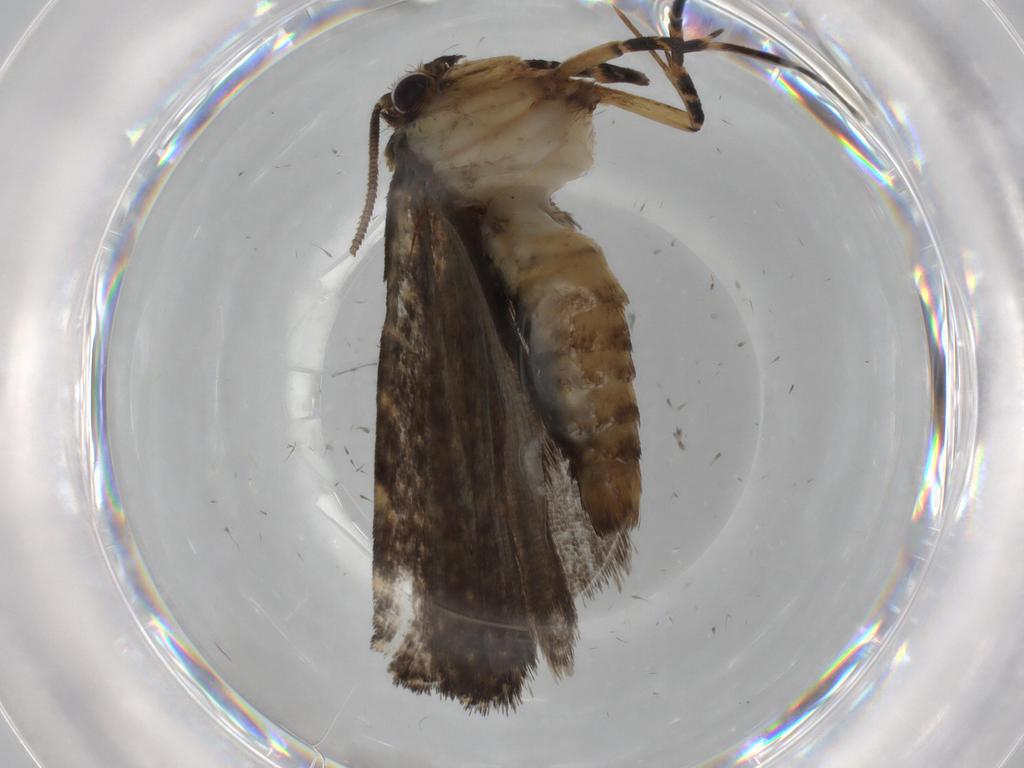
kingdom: Animalia
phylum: Arthropoda
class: Insecta
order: Lepidoptera
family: Tineidae
